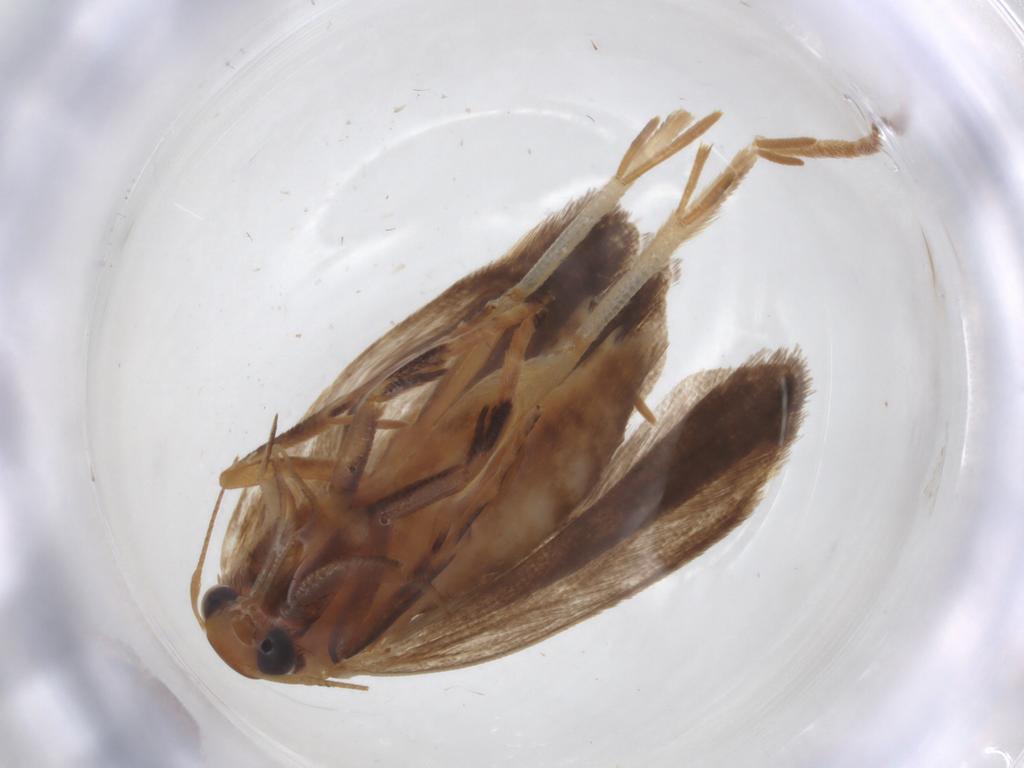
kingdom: Animalia
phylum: Arthropoda
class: Insecta
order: Lepidoptera
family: Gelechiidae
